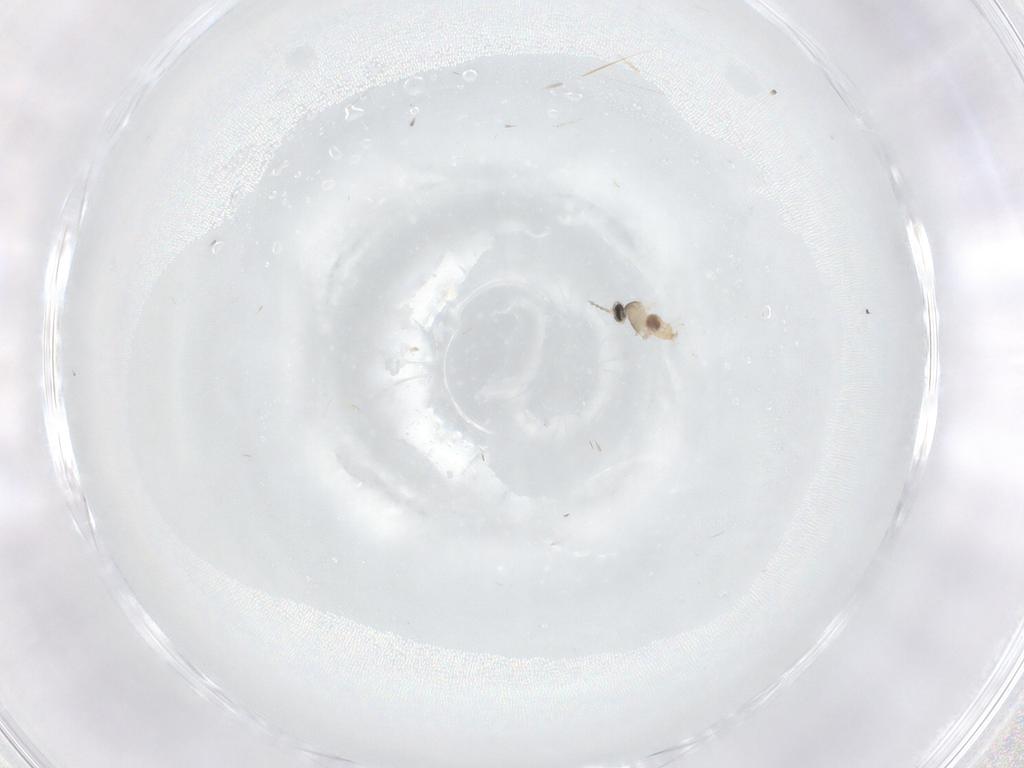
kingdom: Animalia
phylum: Arthropoda
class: Insecta
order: Diptera
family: Cecidomyiidae
